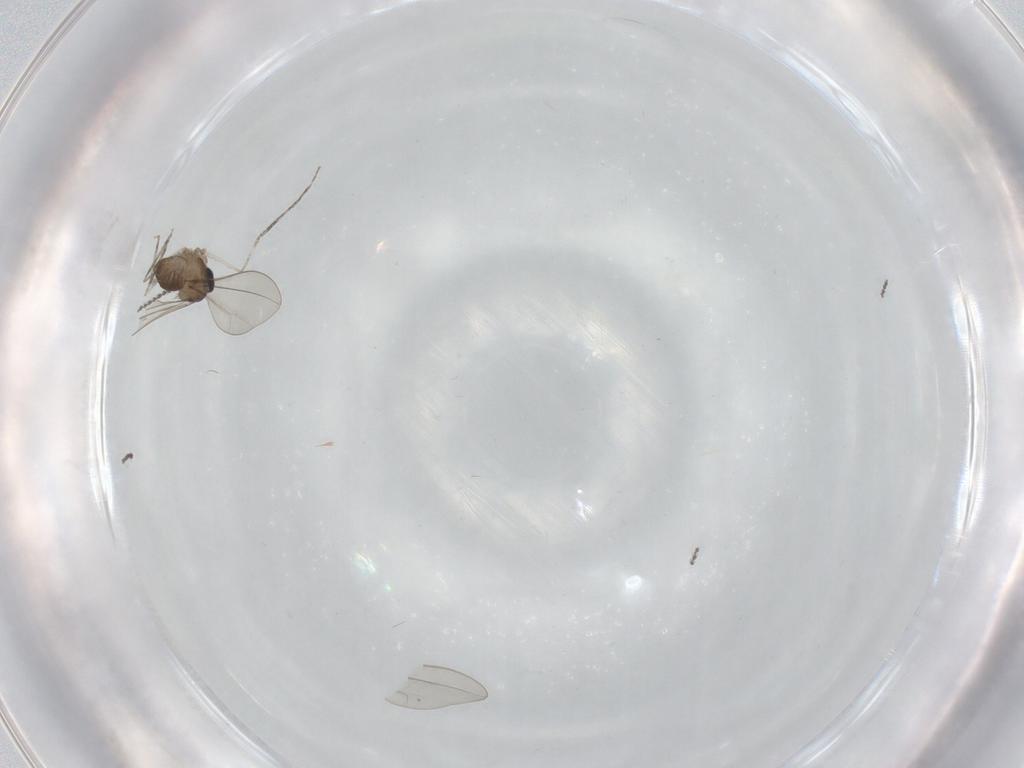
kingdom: Animalia
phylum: Arthropoda
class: Insecta
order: Diptera
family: Cecidomyiidae
